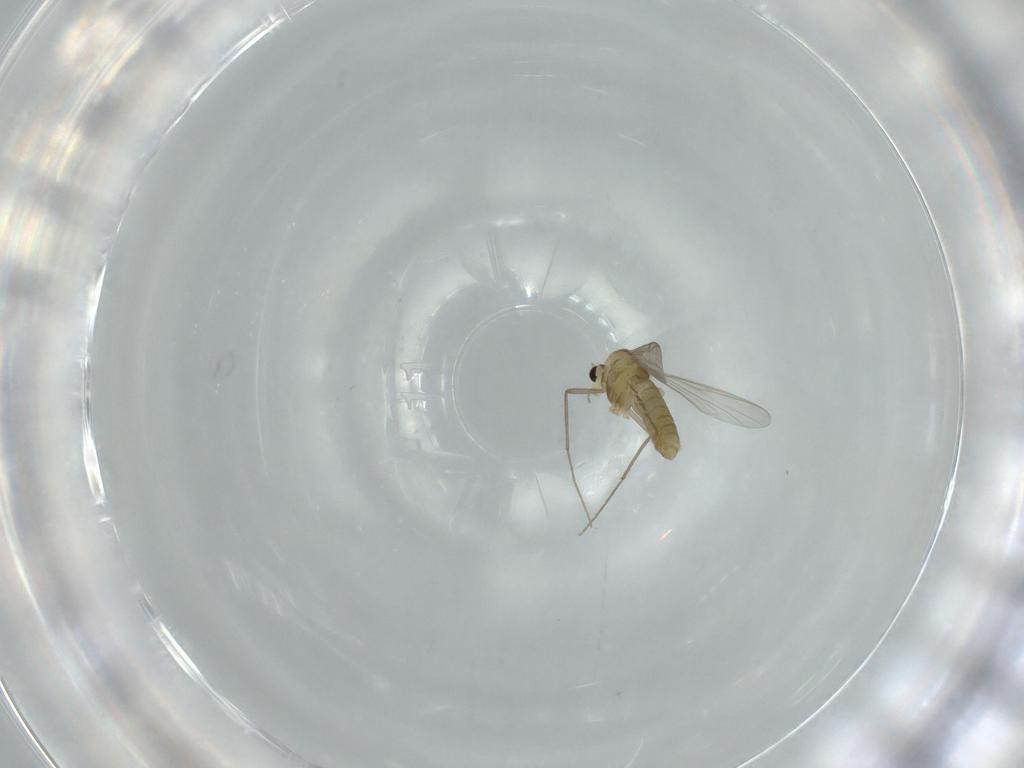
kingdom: Animalia
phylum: Arthropoda
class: Insecta
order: Diptera
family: Chironomidae
